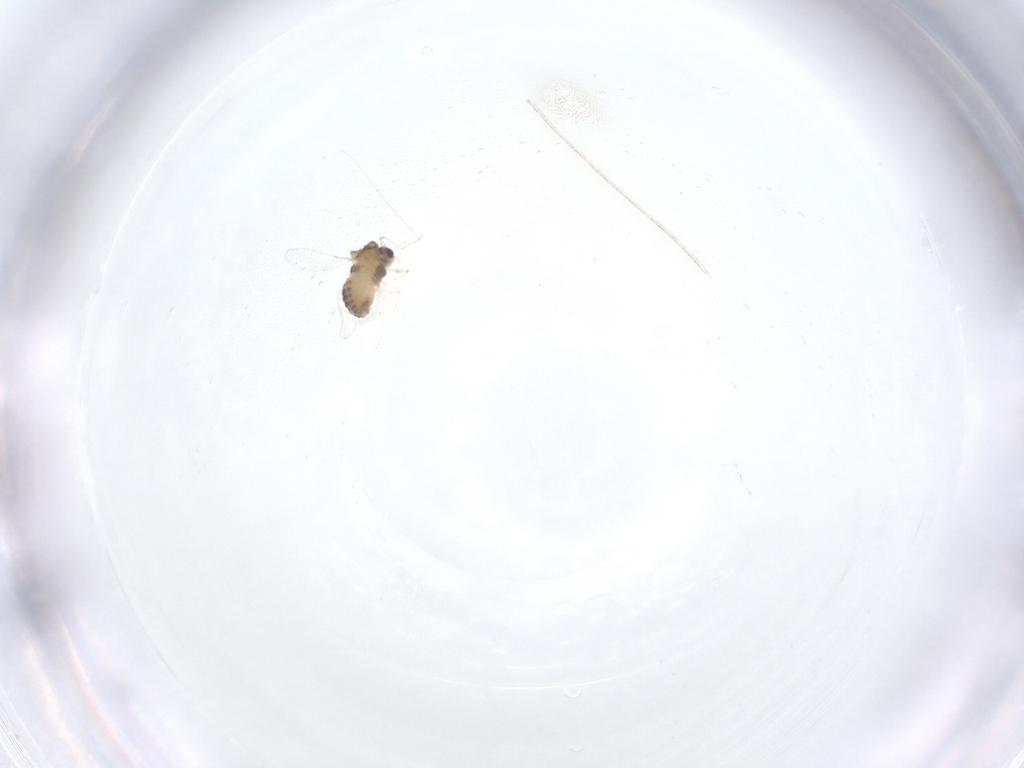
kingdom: Animalia
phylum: Arthropoda
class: Insecta
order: Diptera
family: Chironomidae
